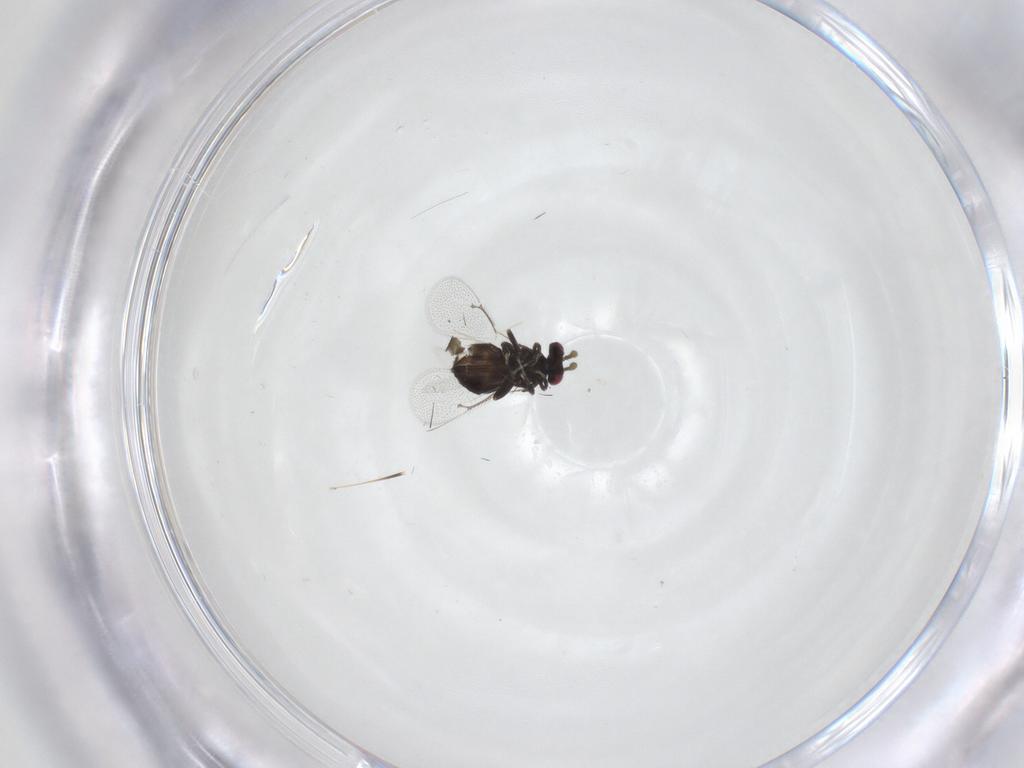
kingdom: Animalia
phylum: Arthropoda
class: Insecta
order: Hymenoptera
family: Eulophidae
